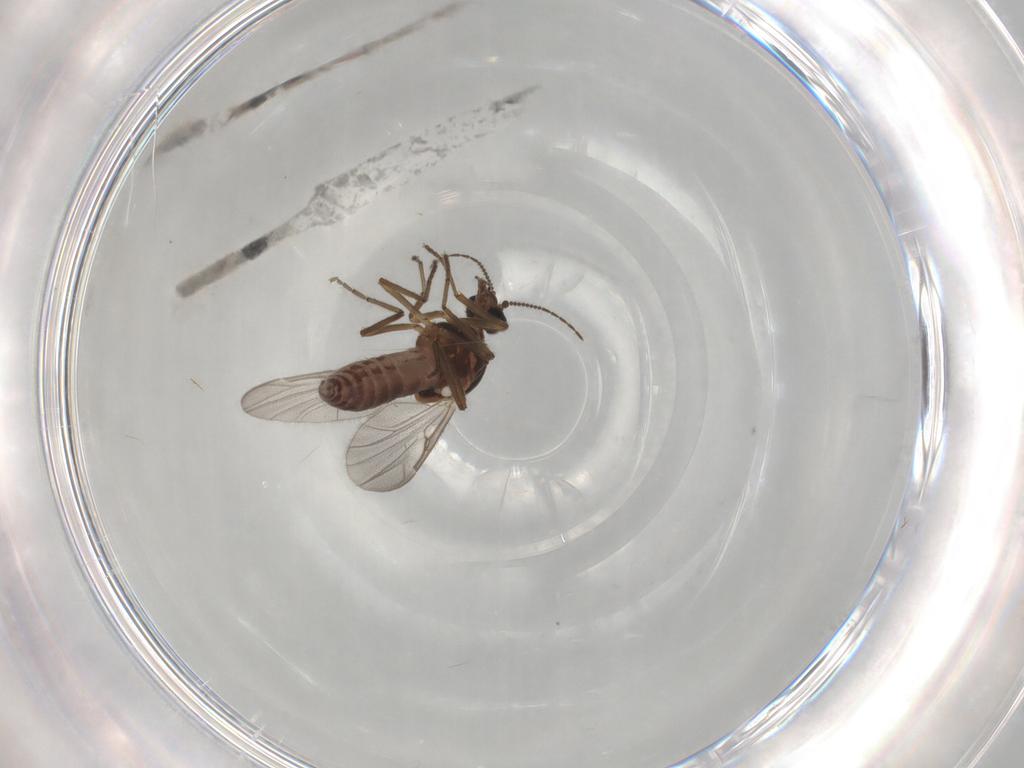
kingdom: Animalia
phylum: Arthropoda
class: Insecta
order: Diptera
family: Ceratopogonidae
